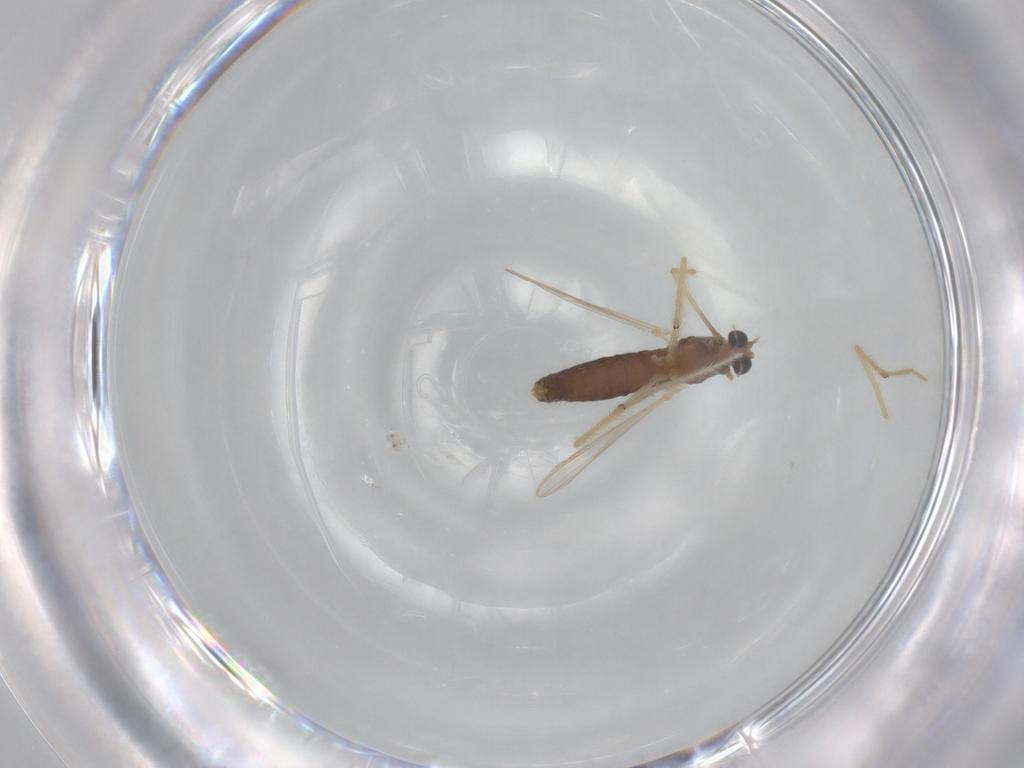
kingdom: Animalia
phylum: Arthropoda
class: Insecta
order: Diptera
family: Chironomidae
